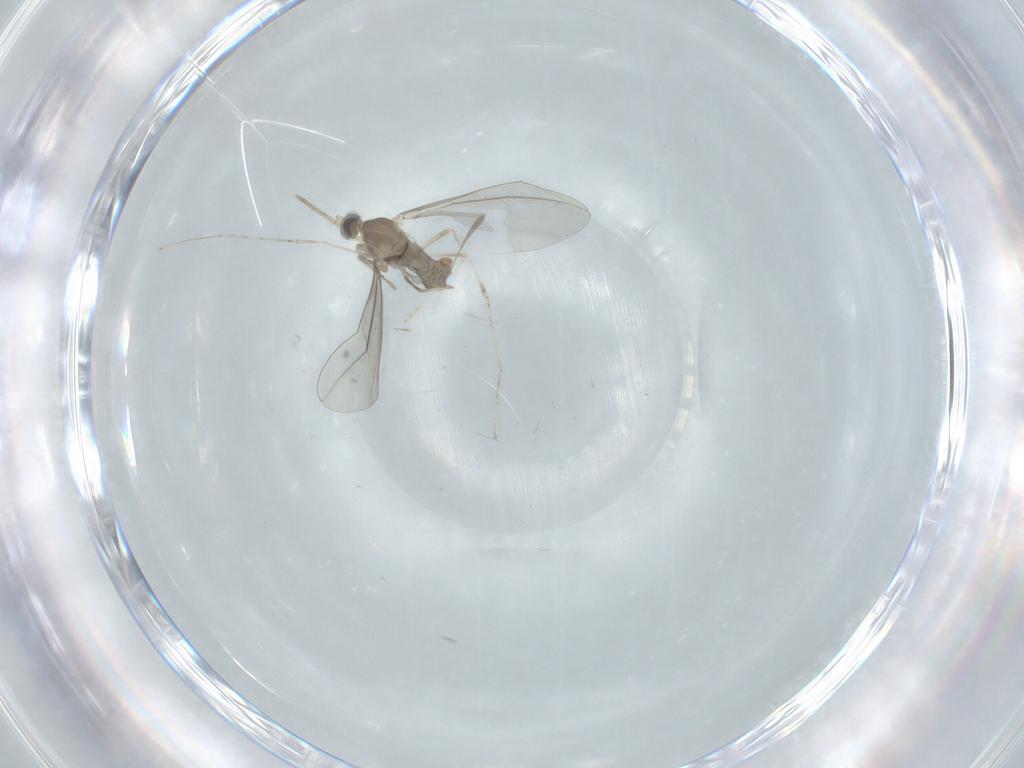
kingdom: Animalia
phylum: Arthropoda
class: Insecta
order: Diptera
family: Cecidomyiidae
